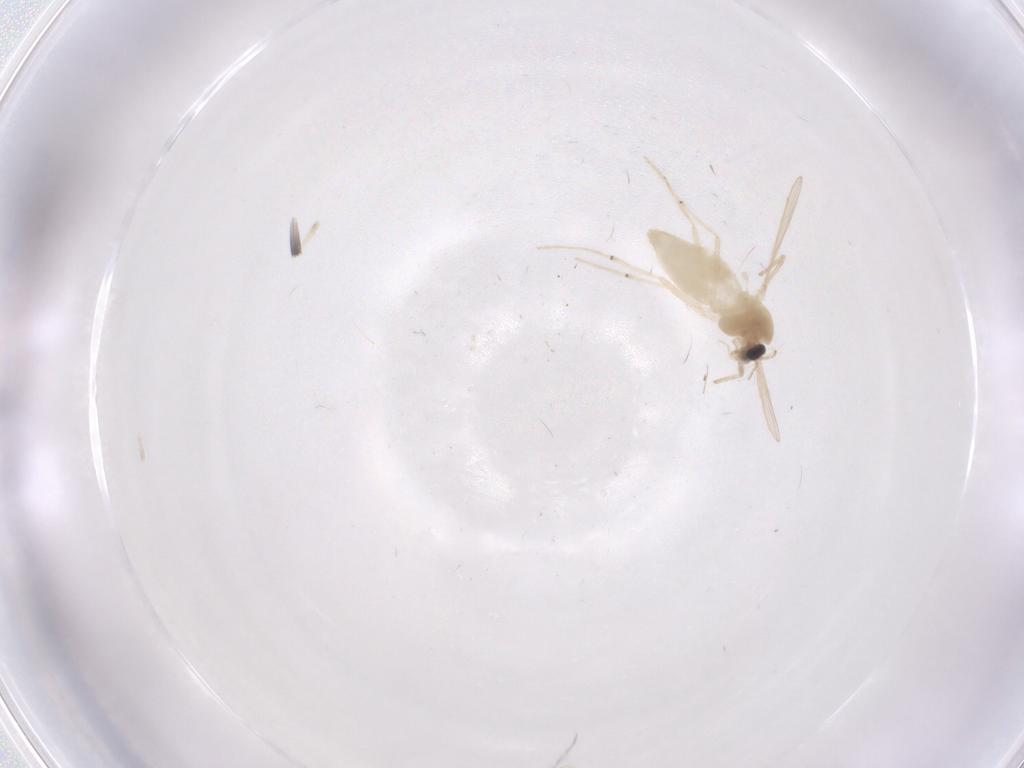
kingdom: Animalia
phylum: Arthropoda
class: Insecta
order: Diptera
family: Chironomidae
